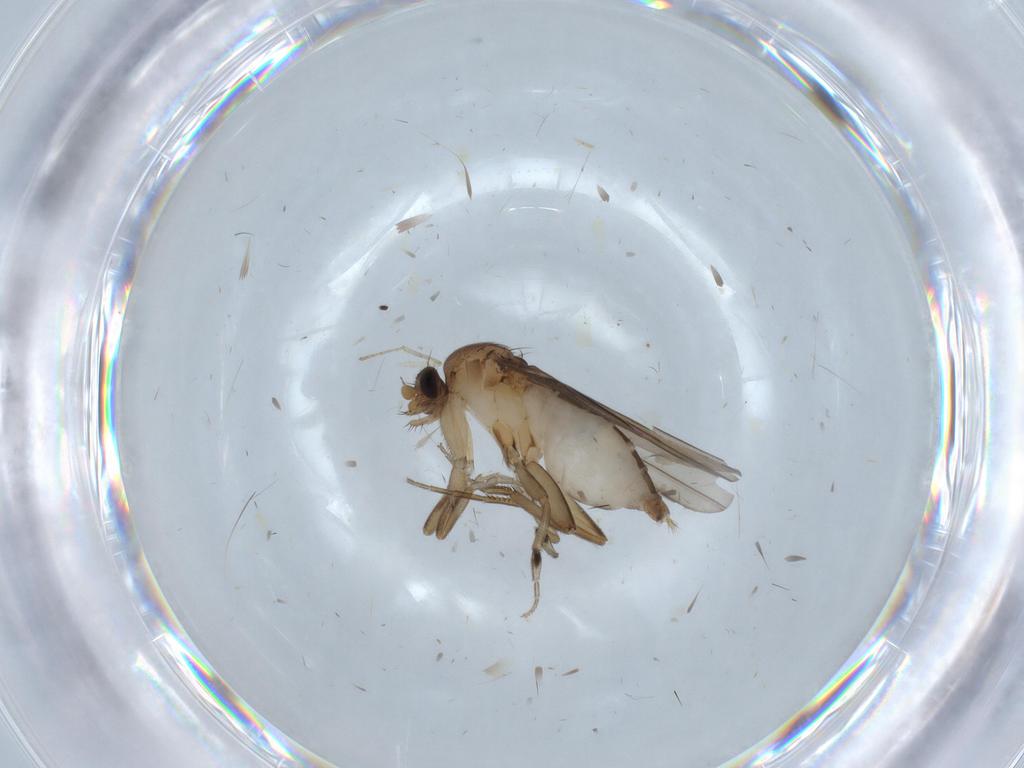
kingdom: Animalia
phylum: Arthropoda
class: Insecta
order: Diptera
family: Phoridae
